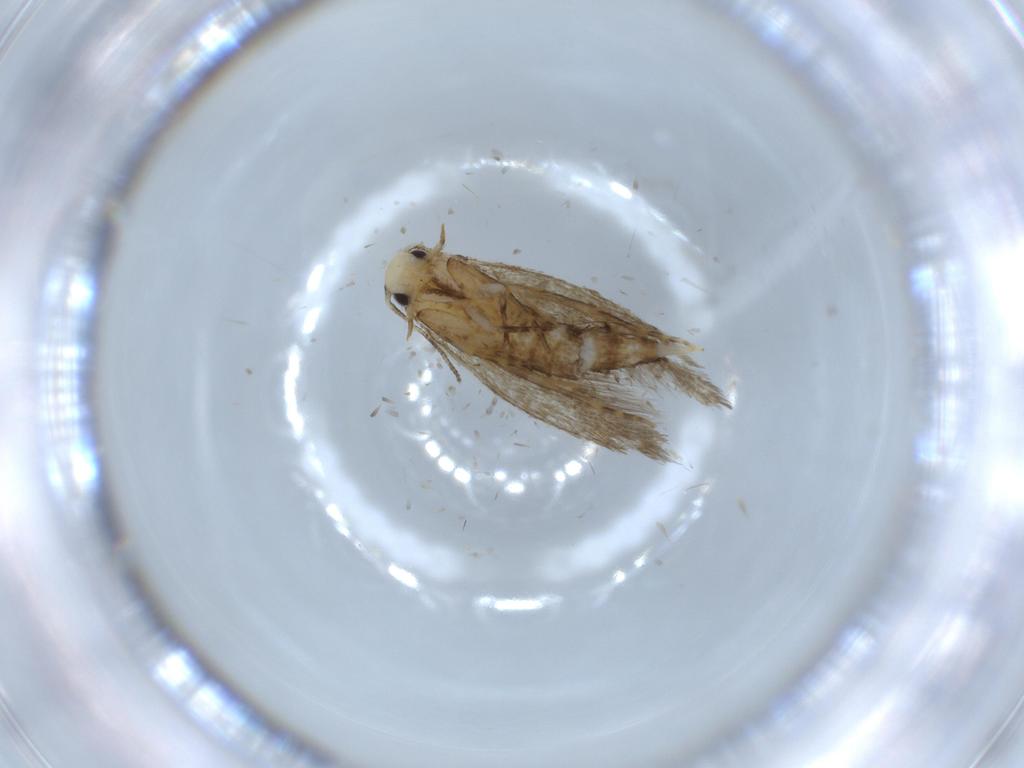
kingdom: Animalia
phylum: Arthropoda
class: Insecta
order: Lepidoptera
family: Tineidae
